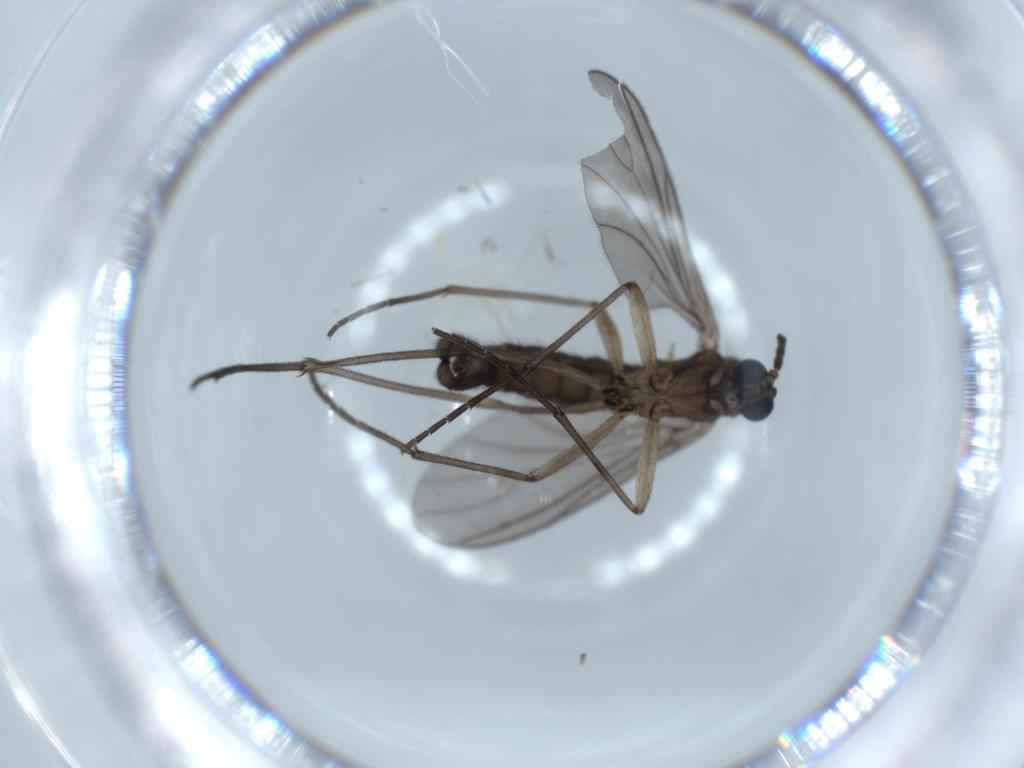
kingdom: Animalia
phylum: Arthropoda
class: Insecta
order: Diptera
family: Sciaridae
